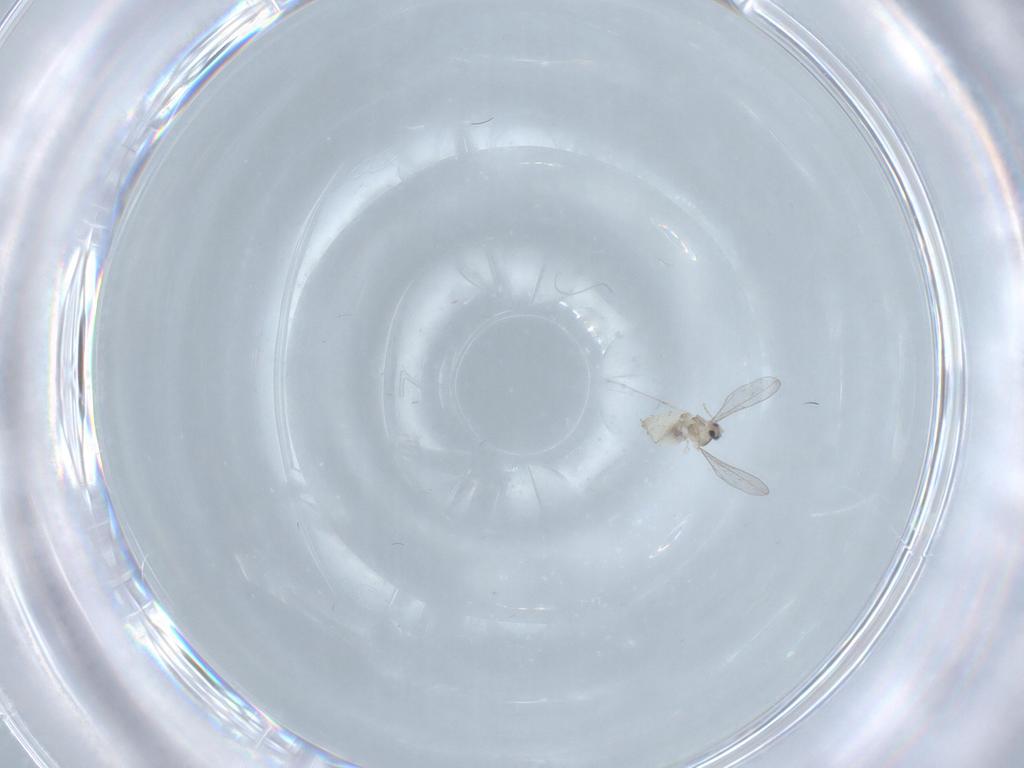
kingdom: Animalia
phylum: Arthropoda
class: Insecta
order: Diptera
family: Cecidomyiidae
